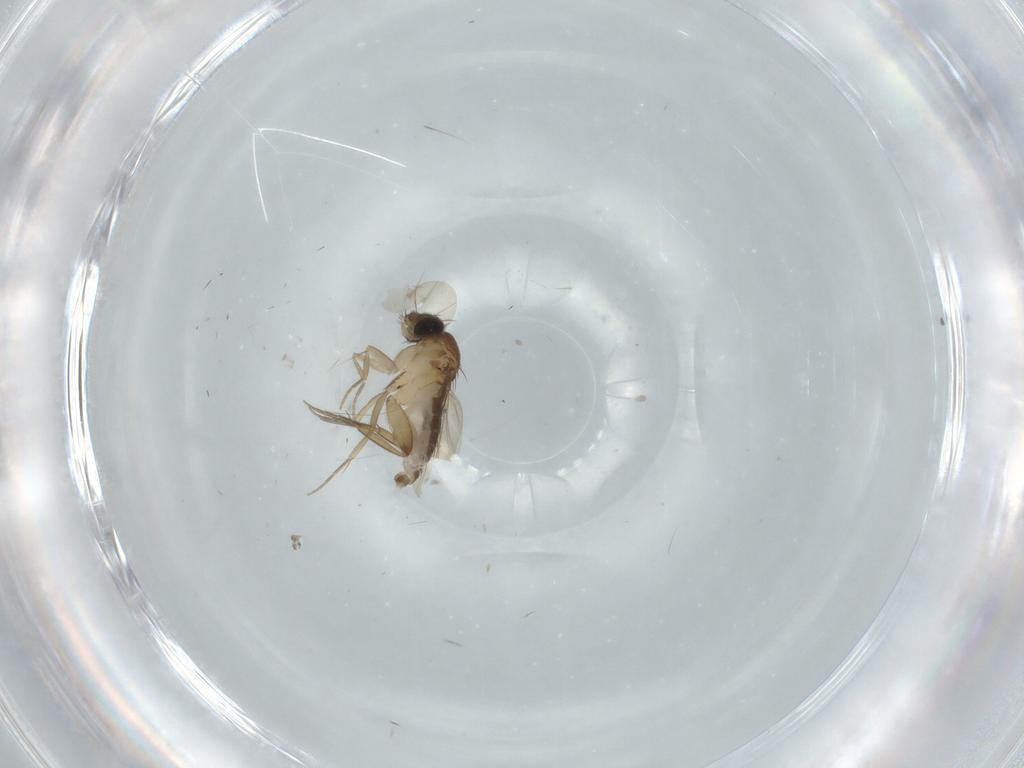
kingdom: Animalia
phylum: Arthropoda
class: Insecta
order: Diptera
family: Phoridae
